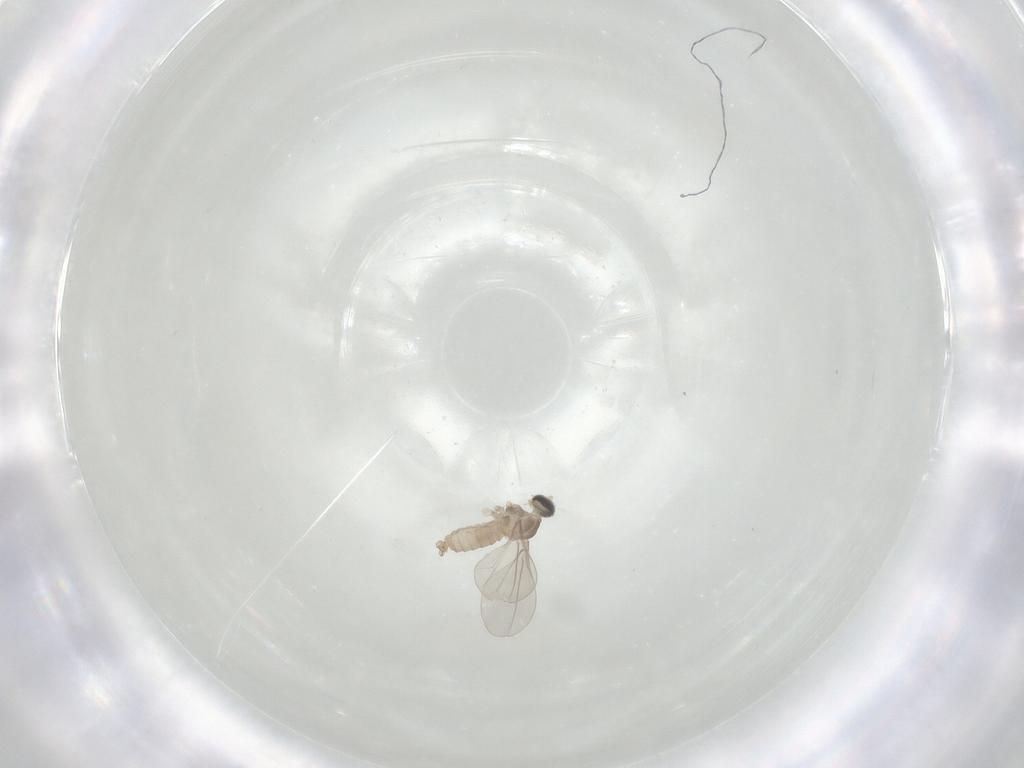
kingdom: Animalia
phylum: Arthropoda
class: Insecta
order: Diptera
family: Cecidomyiidae
